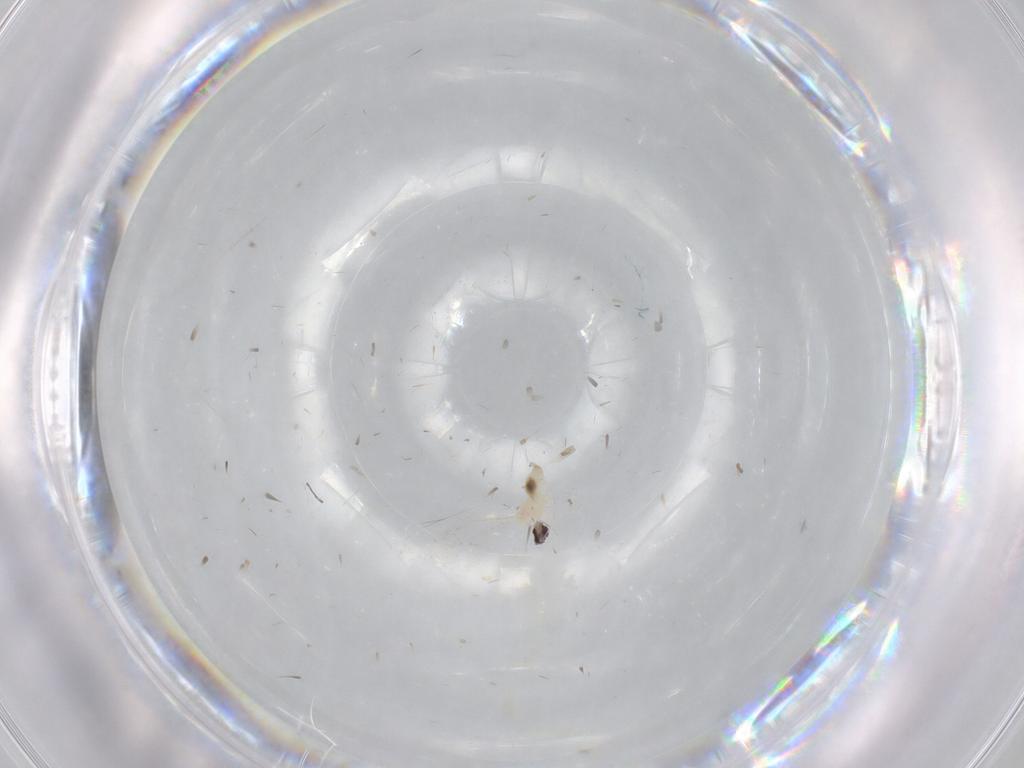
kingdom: Animalia
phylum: Arthropoda
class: Insecta
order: Diptera
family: Cecidomyiidae
